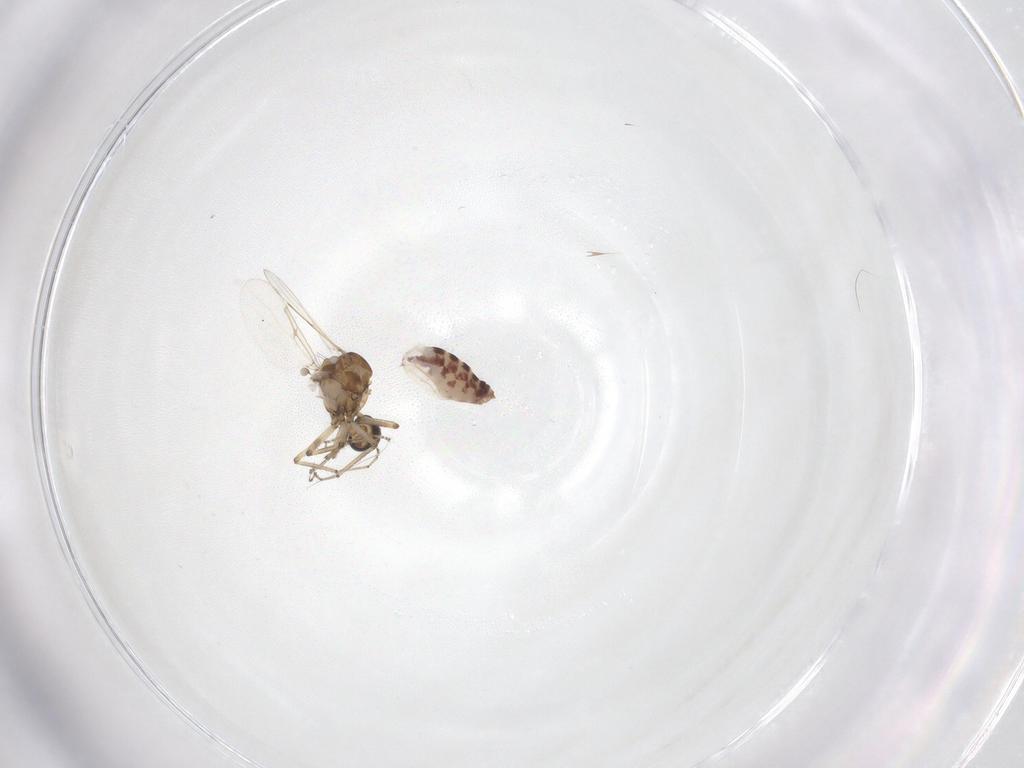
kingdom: Animalia
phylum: Arthropoda
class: Insecta
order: Diptera
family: Ceratopogonidae
